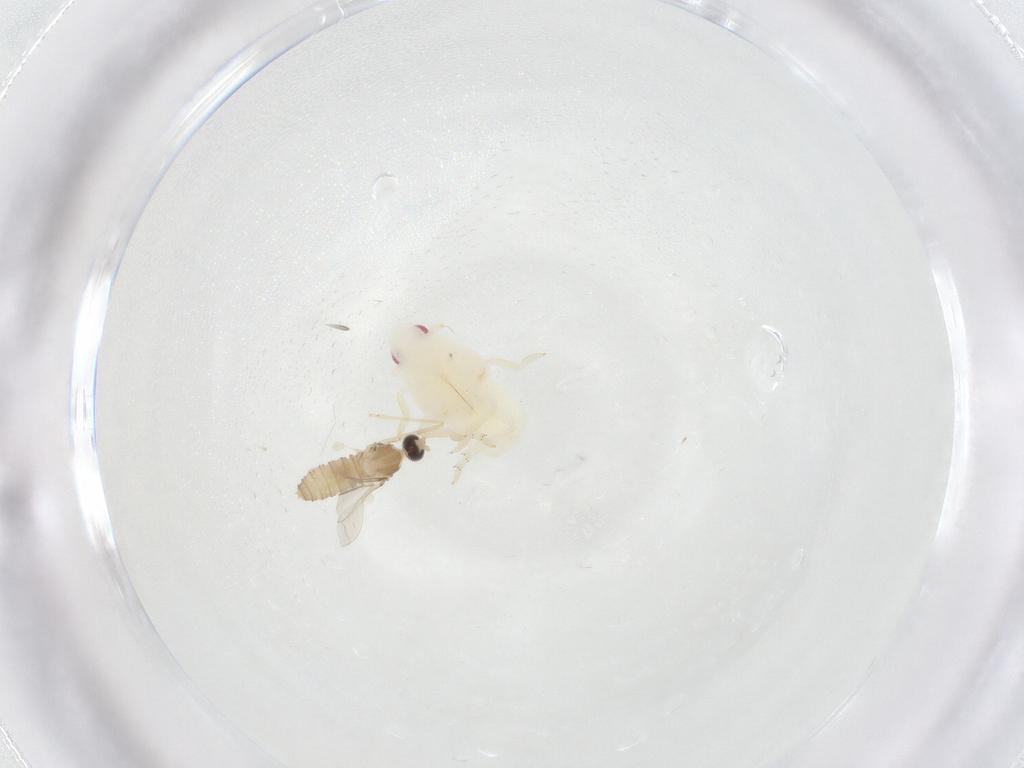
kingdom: Animalia
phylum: Arthropoda
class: Insecta
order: Diptera
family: Cecidomyiidae
